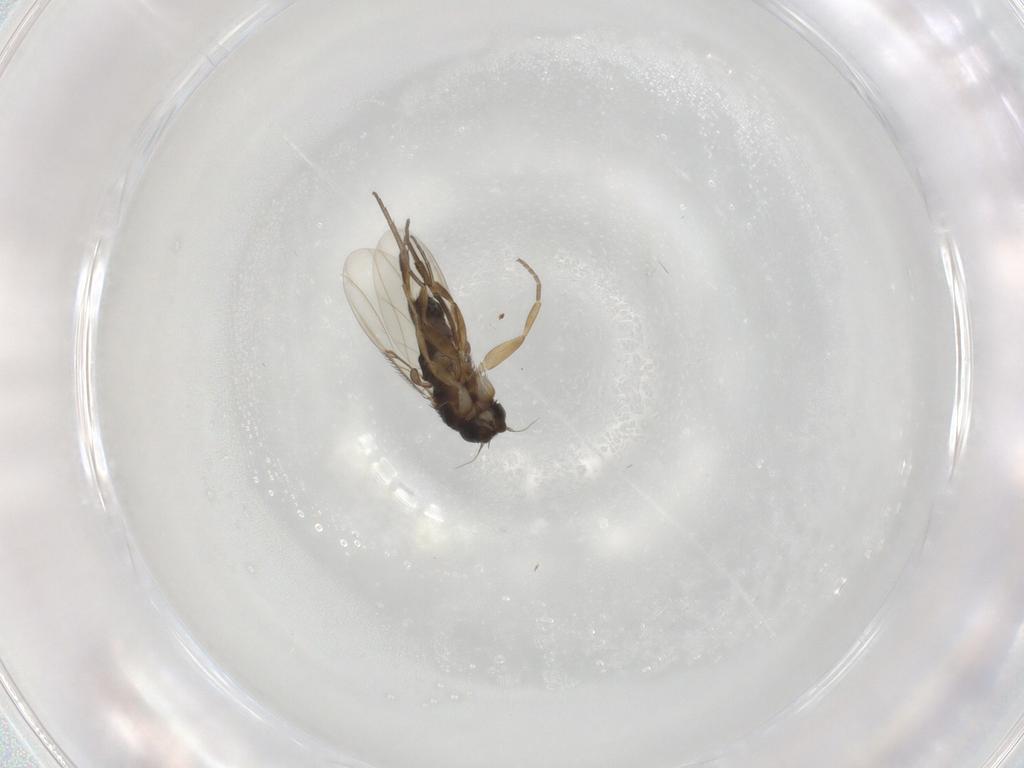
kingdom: Animalia
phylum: Arthropoda
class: Insecta
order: Diptera
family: Phoridae
